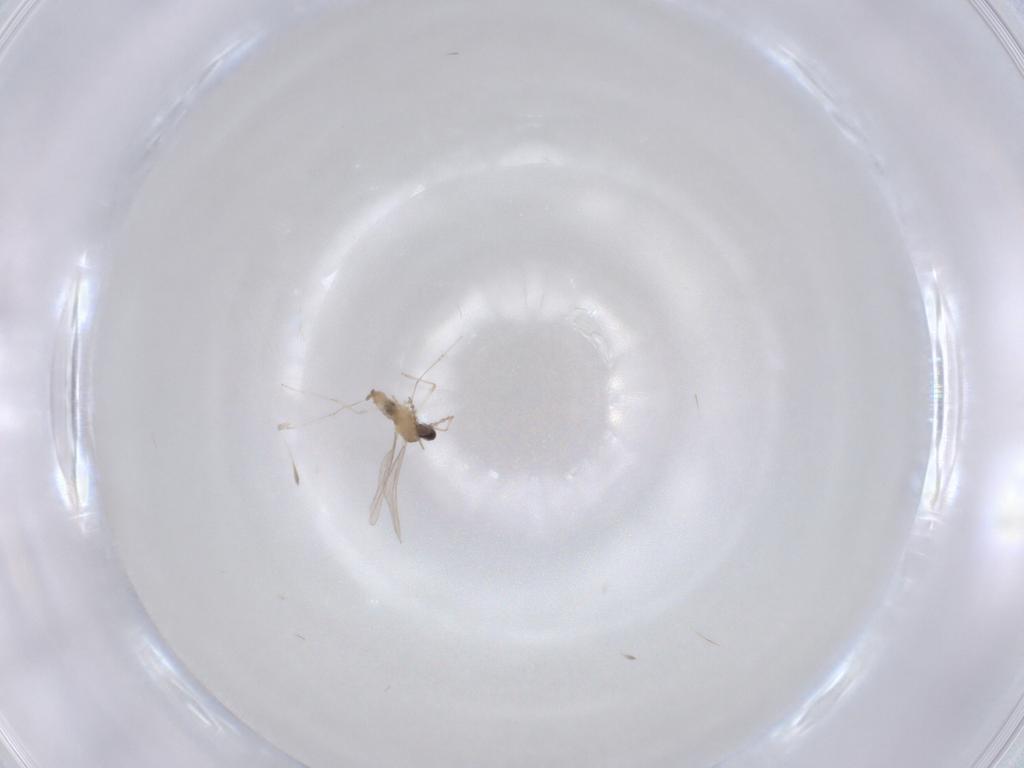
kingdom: Animalia
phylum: Arthropoda
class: Insecta
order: Diptera
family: Cecidomyiidae
